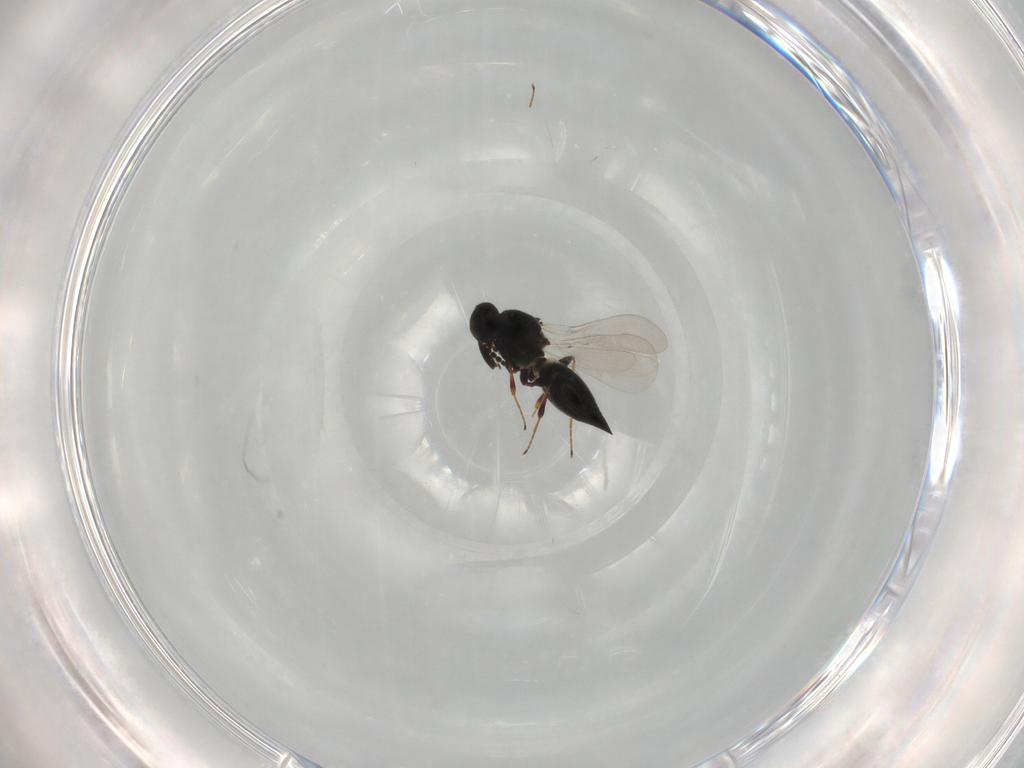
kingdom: Animalia
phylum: Arthropoda
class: Insecta
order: Hymenoptera
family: Platygastridae
